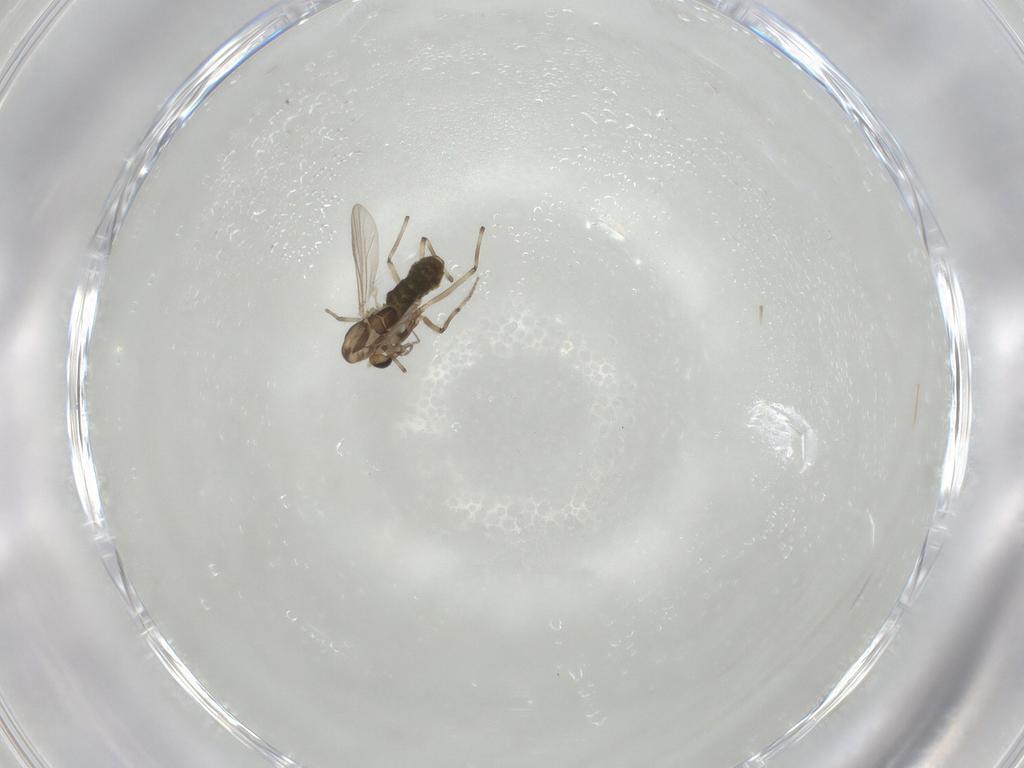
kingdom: Animalia
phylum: Arthropoda
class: Insecta
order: Diptera
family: Chironomidae
